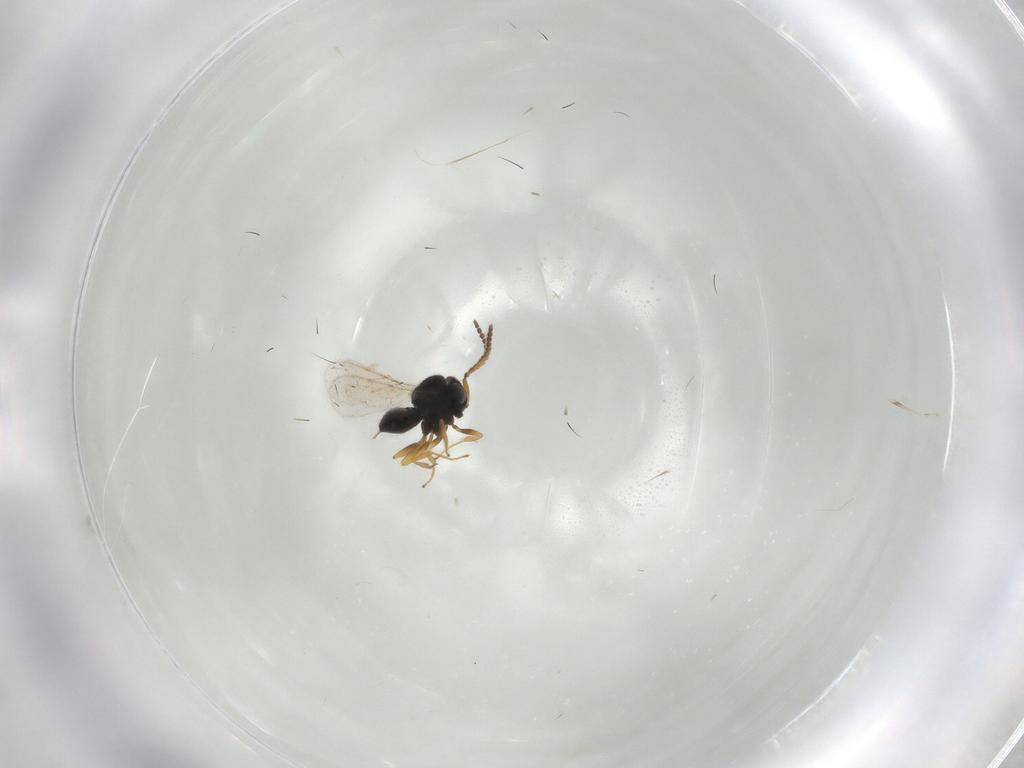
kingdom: Animalia
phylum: Arthropoda
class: Insecta
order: Hymenoptera
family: Scelionidae
